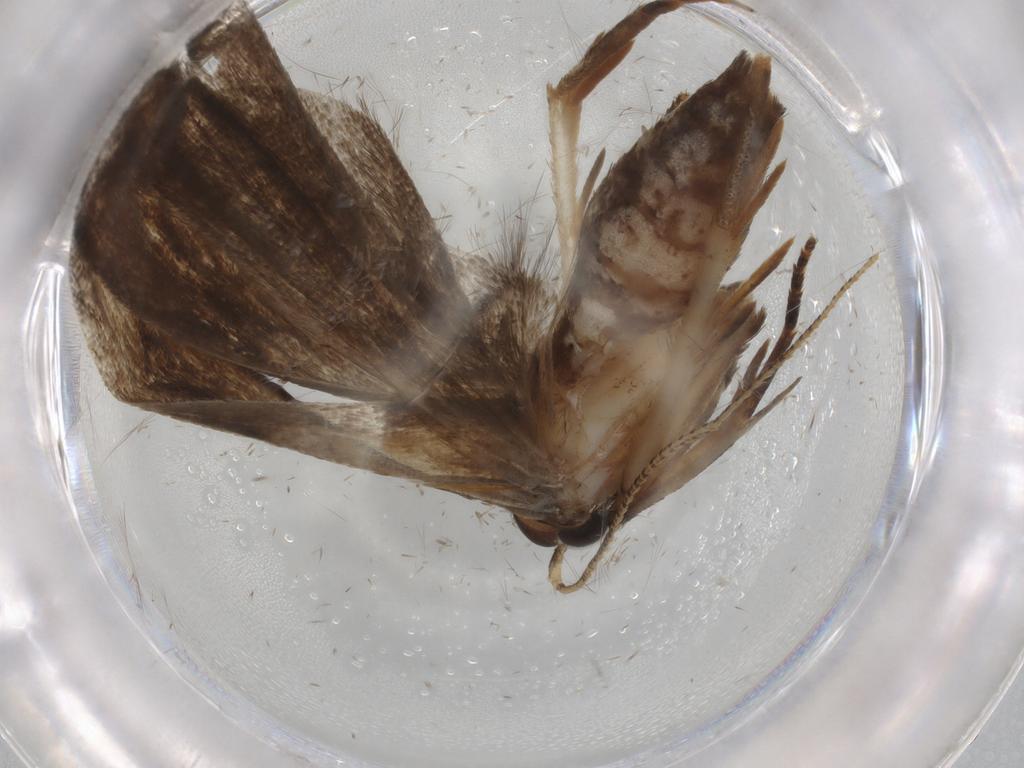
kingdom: Animalia
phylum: Arthropoda
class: Insecta
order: Lepidoptera
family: Gelechiidae
